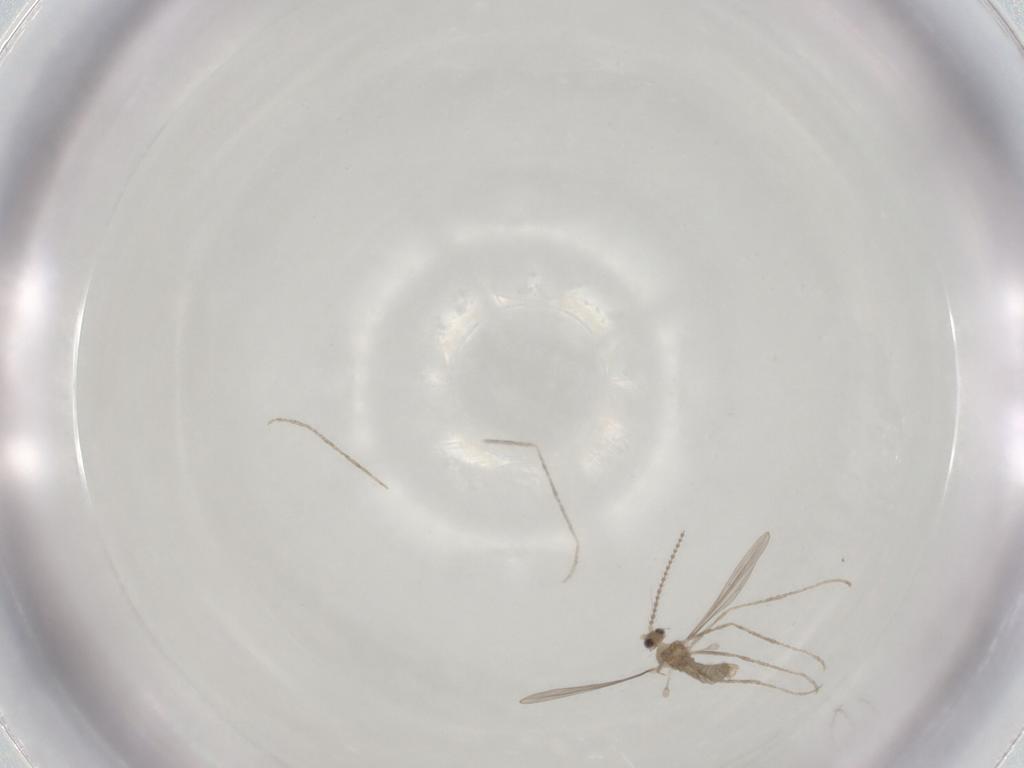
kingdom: Animalia
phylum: Arthropoda
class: Insecta
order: Diptera
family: Cecidomyiidae
